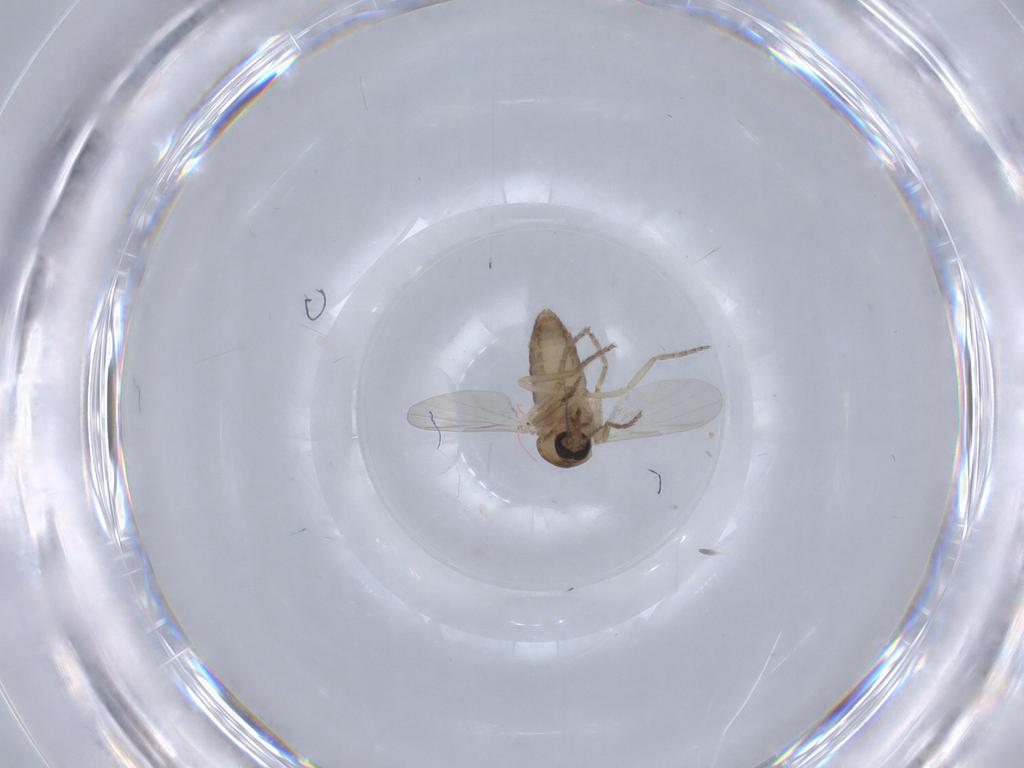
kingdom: Animalia
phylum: Arthropoda
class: Insecta
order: Diptera
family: Ceratopogonidae
